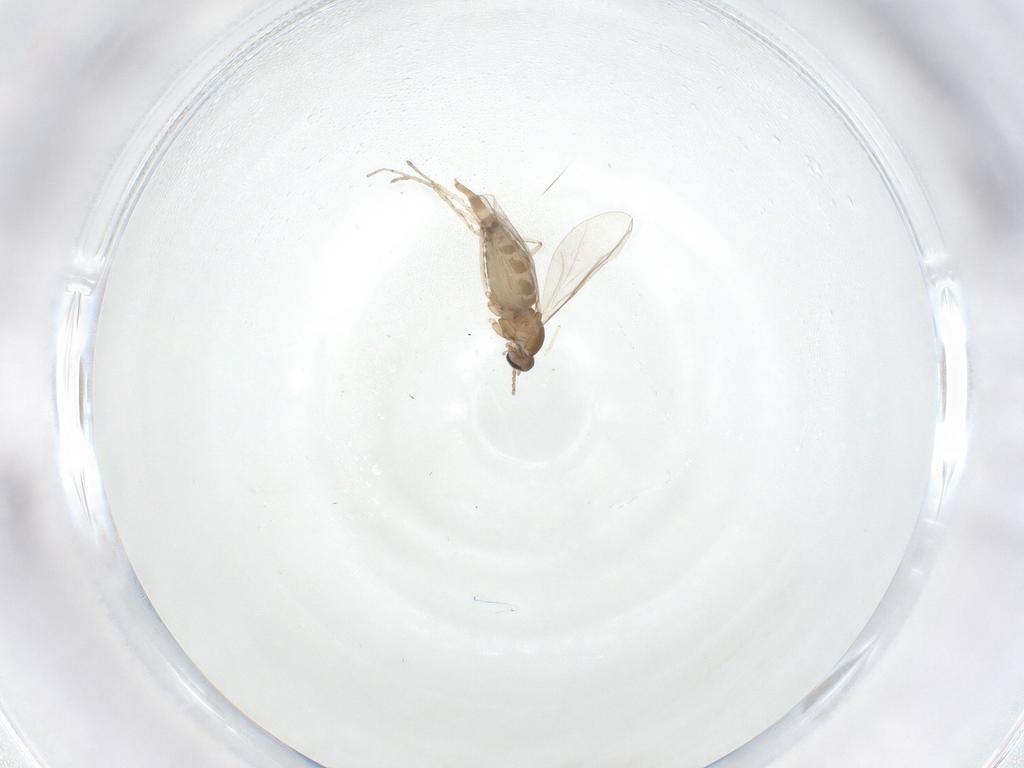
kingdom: Animalia
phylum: Arthropoda
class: Insecta
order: Diptera
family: Cecidomyiidae
